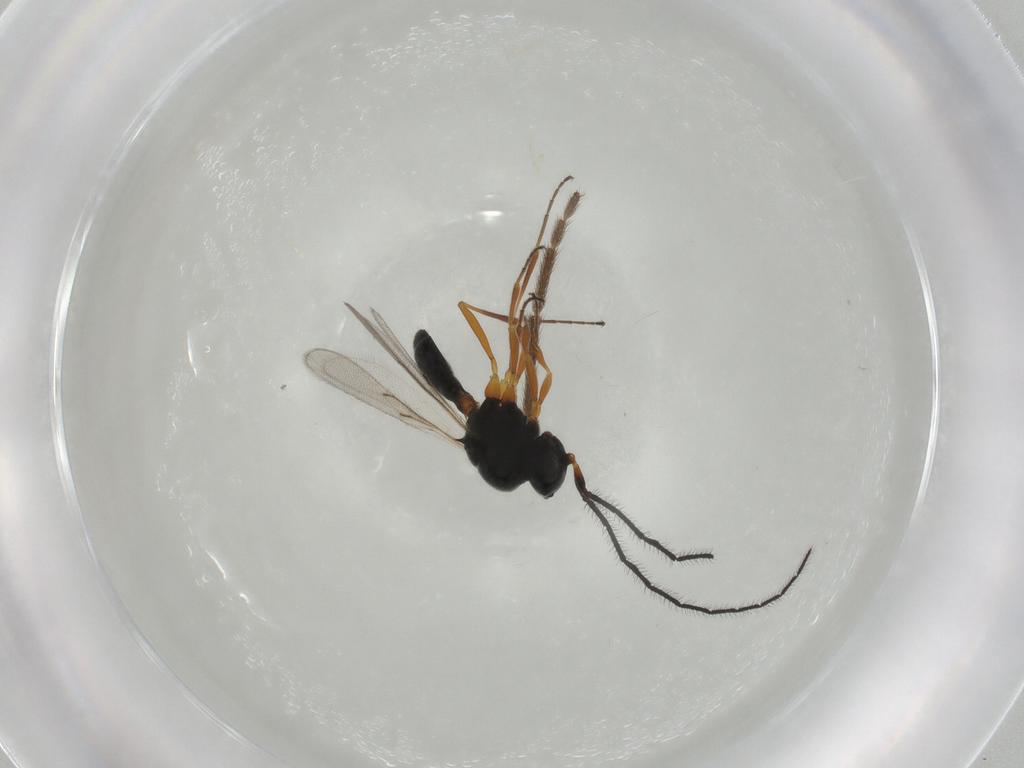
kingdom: Animalia
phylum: Arthropoda
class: Insecta
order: Hymenoptera
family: Scelionidae
